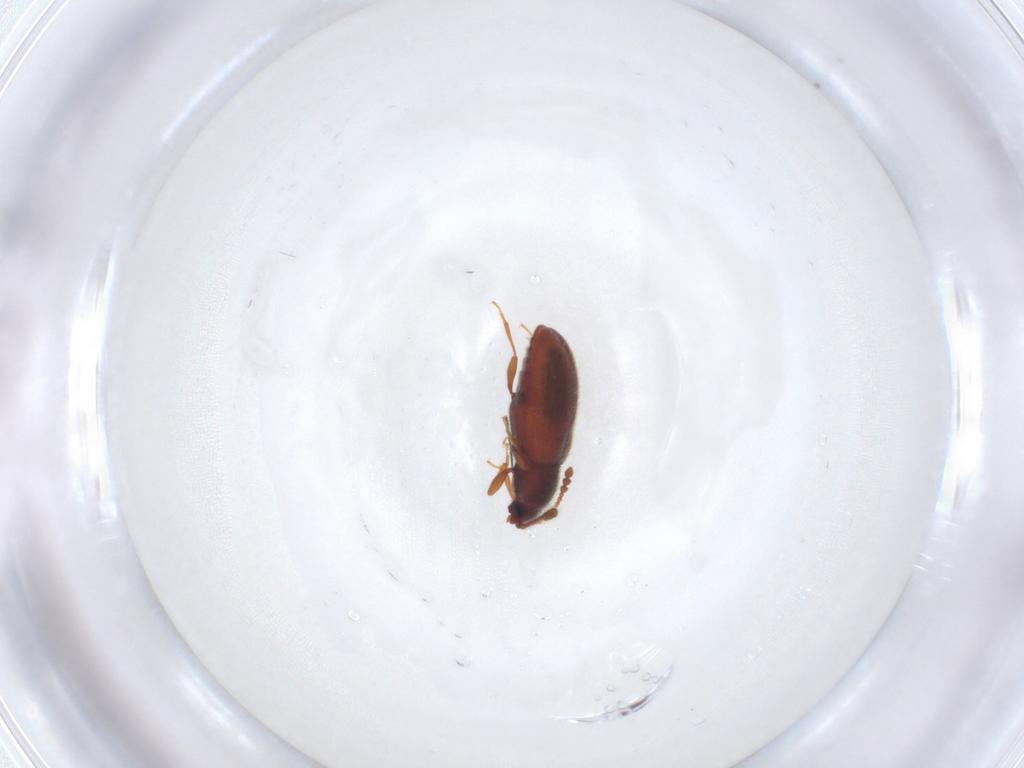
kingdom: Animalia
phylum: Arthropoda
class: Insecta
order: Coleoptera
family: Cryptophagidae
